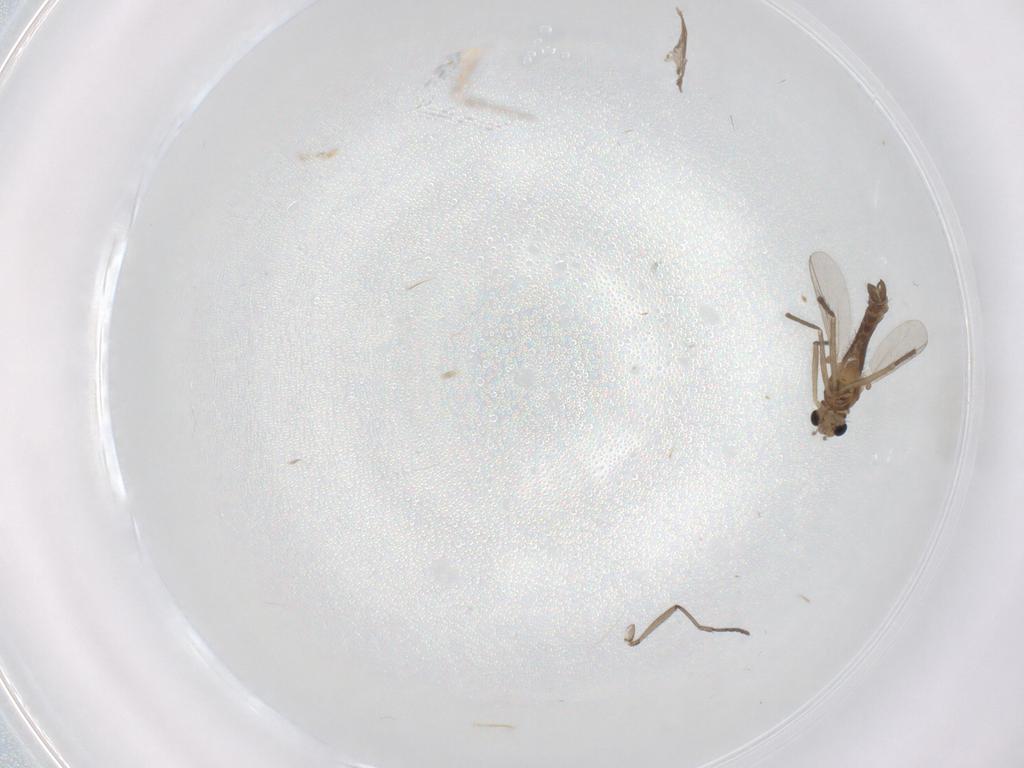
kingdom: Animalia
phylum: Arthropoda
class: Insecta
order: Diptera
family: Chironomidae
